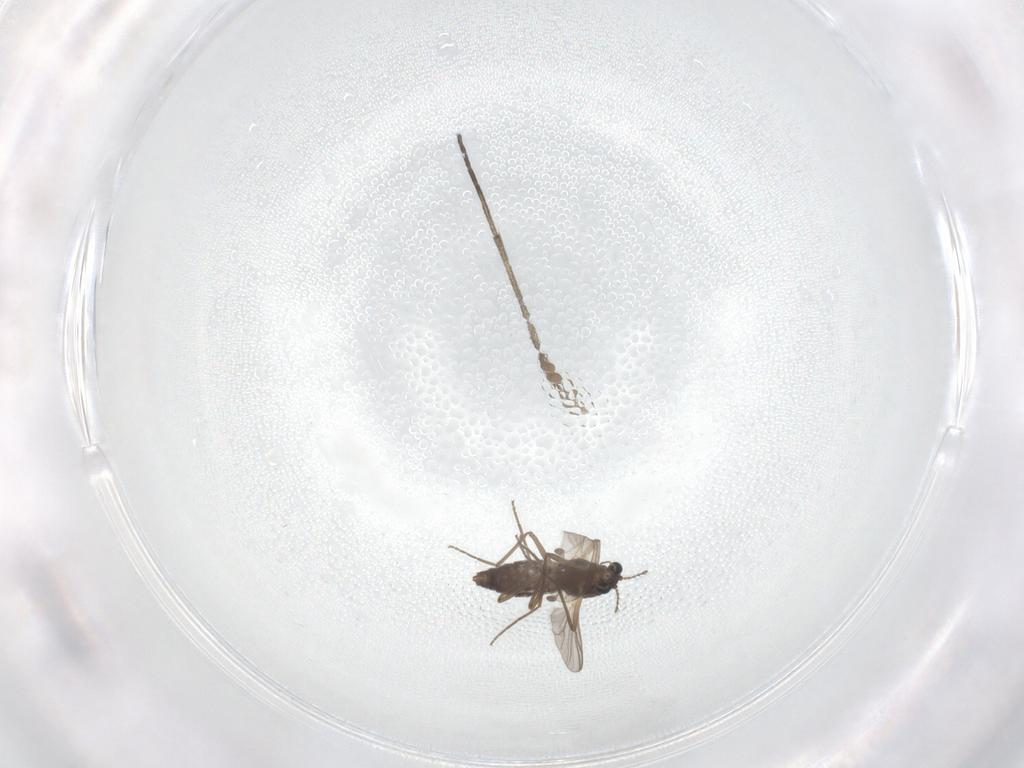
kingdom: Animalia
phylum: Arthropoda
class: Insecta
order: Diptera
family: Chironomidae
